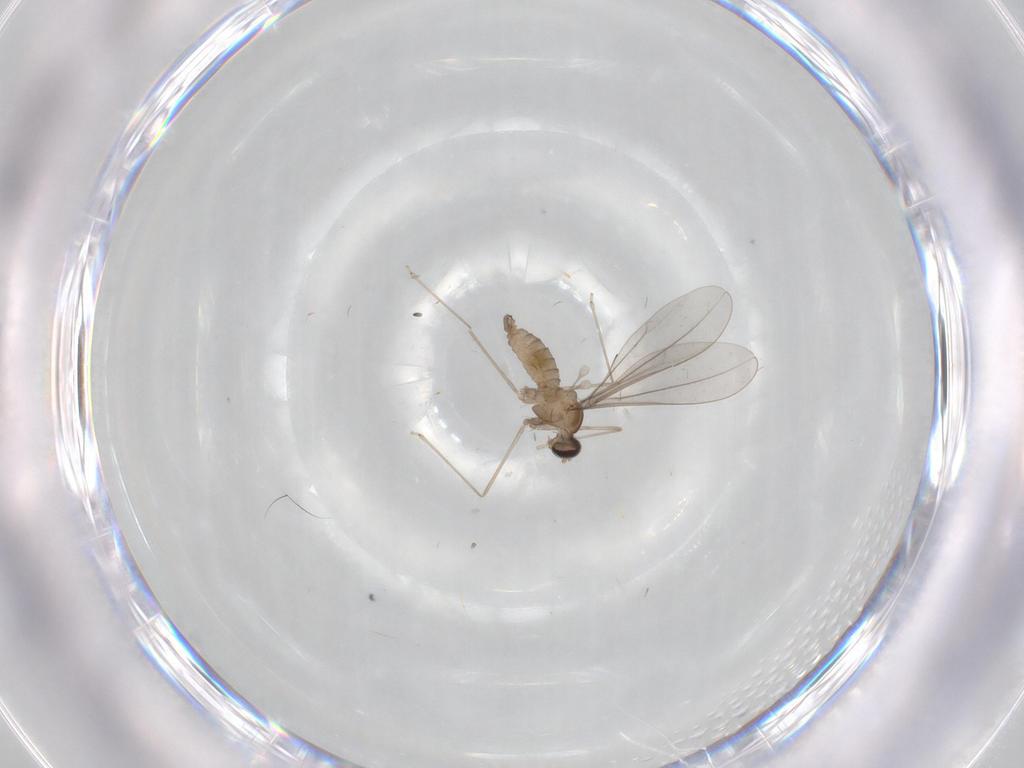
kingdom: Animalia
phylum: Arthropoda
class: Insecta
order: Diptera
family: Cecidomyiidae
